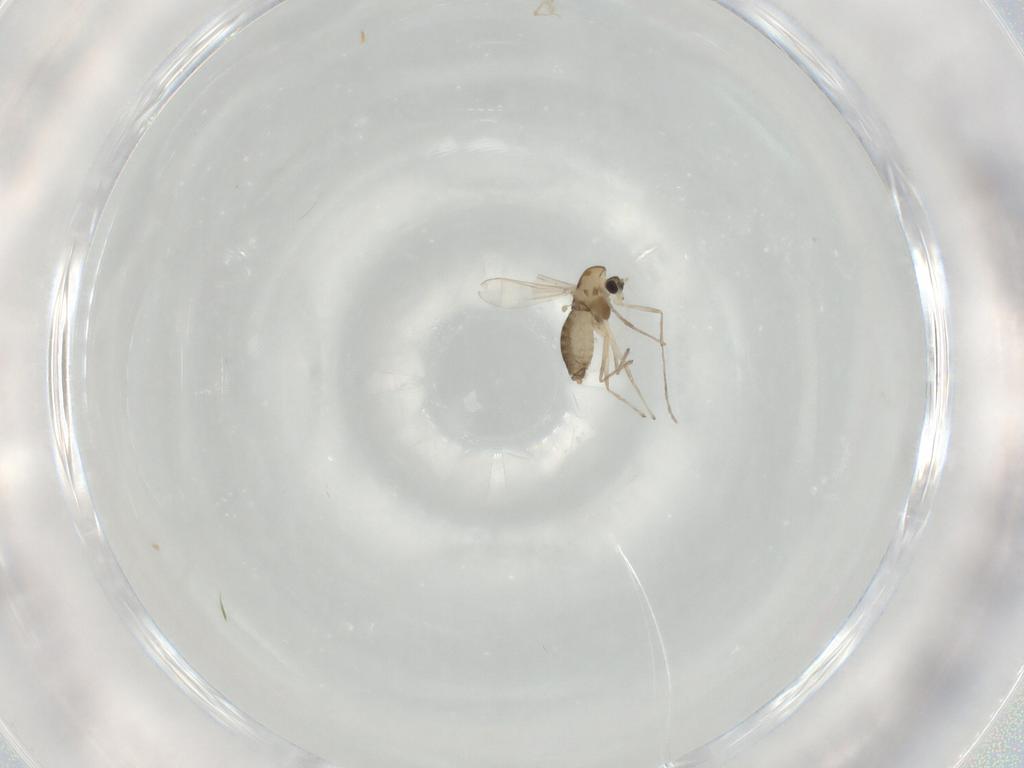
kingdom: Animalia
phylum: Arthropoda
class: Insecta
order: Diptera
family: Chironomidae
